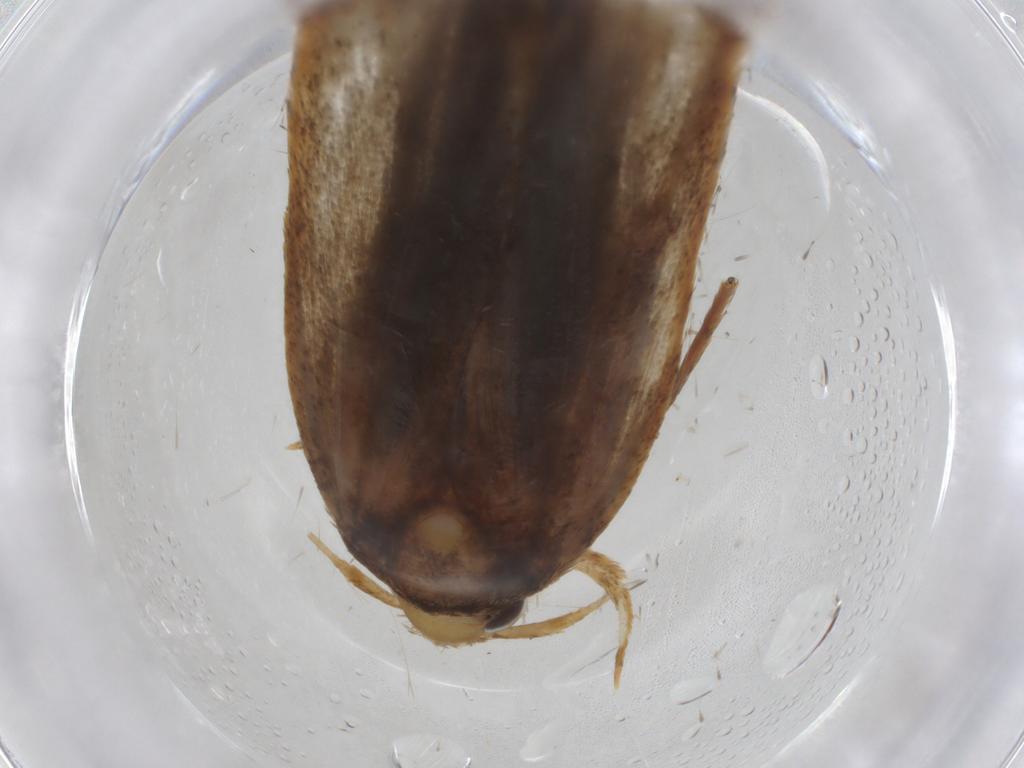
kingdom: Animalia
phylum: Arthropoda
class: Insecta
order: Lepidoptera
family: Autostichidae
